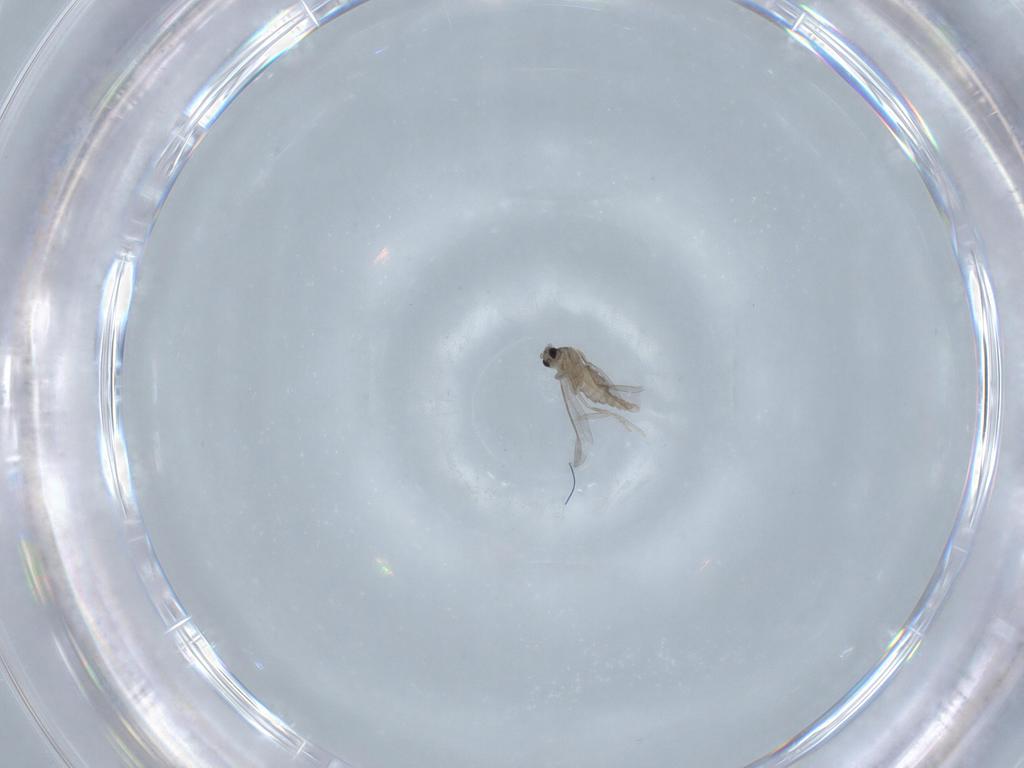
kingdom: Animalia
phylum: Arthropoda
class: Insecta
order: Diptera
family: Cecidomyiidae
